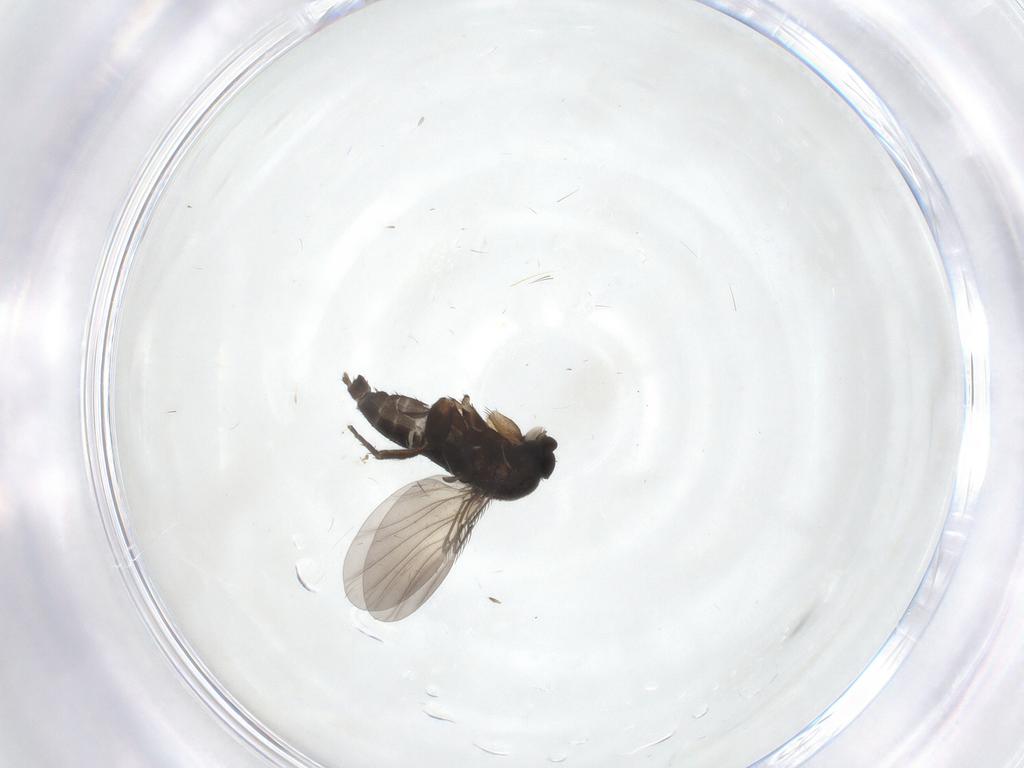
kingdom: Animalia
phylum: Arthropoda
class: Insecta
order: Diptera
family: Phoridae
